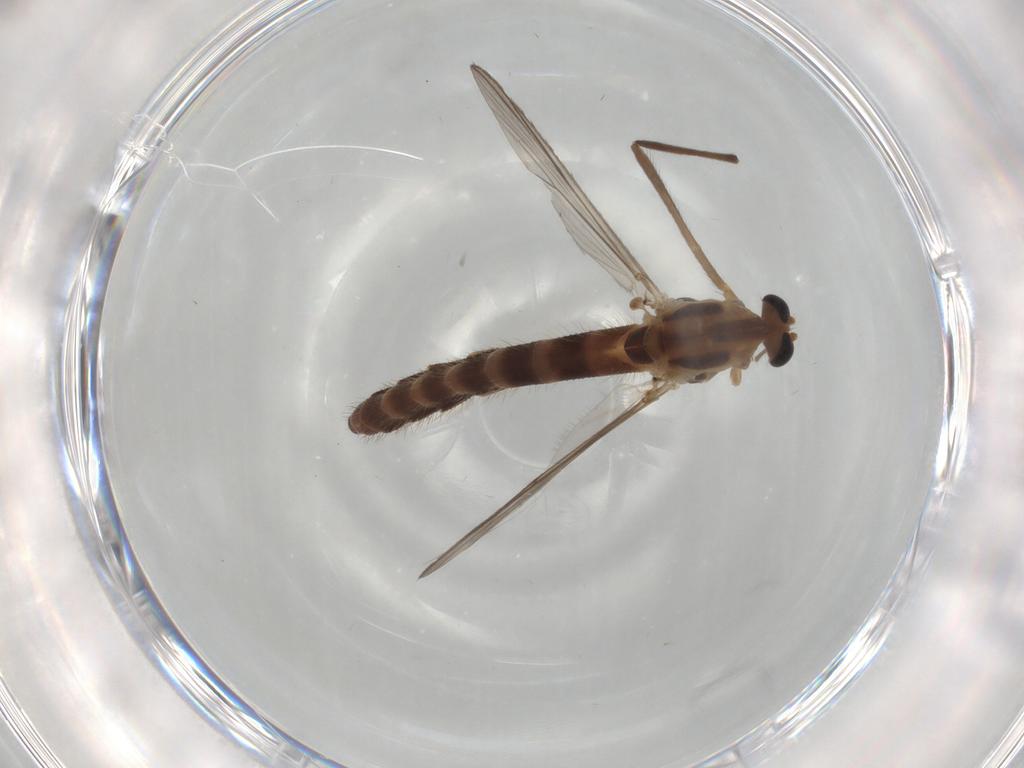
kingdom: Animalia
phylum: Arthropoda
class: Insecta
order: Diptera
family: Chironomidae
